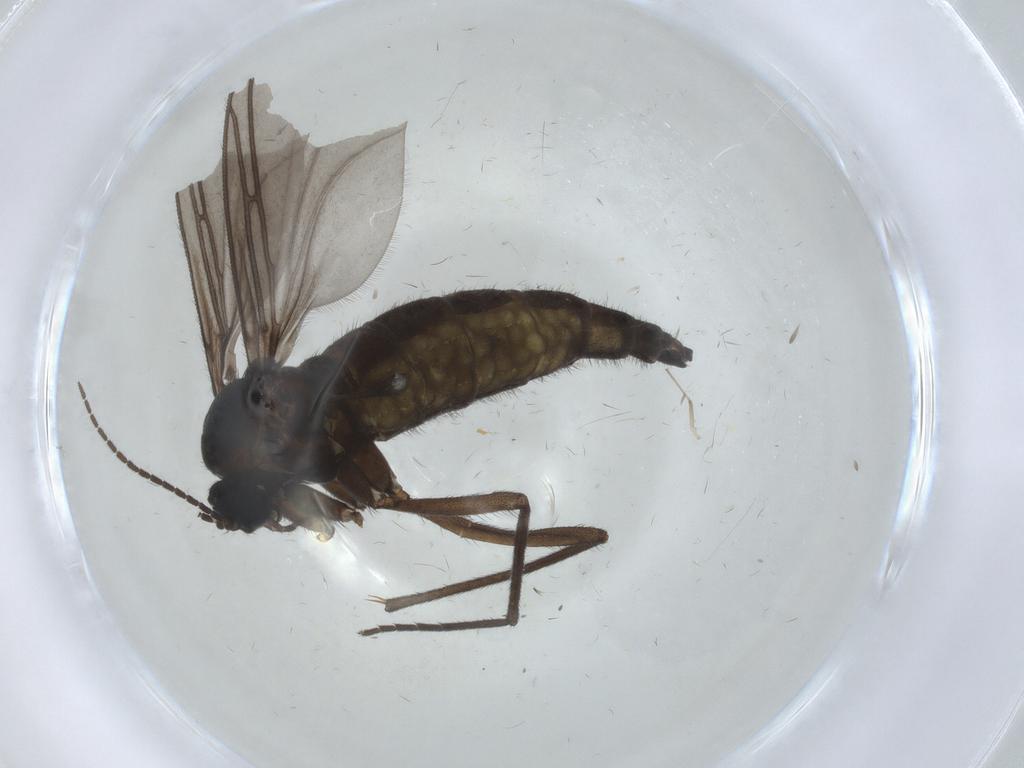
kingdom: Animalia
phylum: Arthropoda
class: Insecta
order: Diptera
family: Sciaridae
